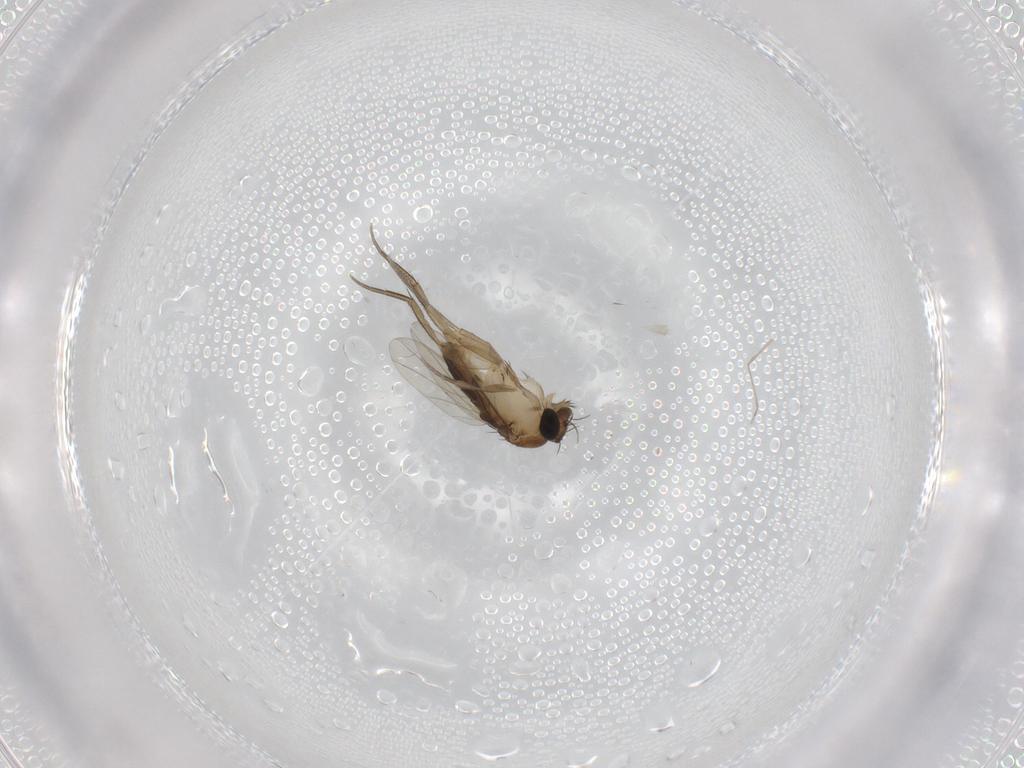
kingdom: Animalia
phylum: Arthropoda
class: Insecta
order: Diptera
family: Phoridae
